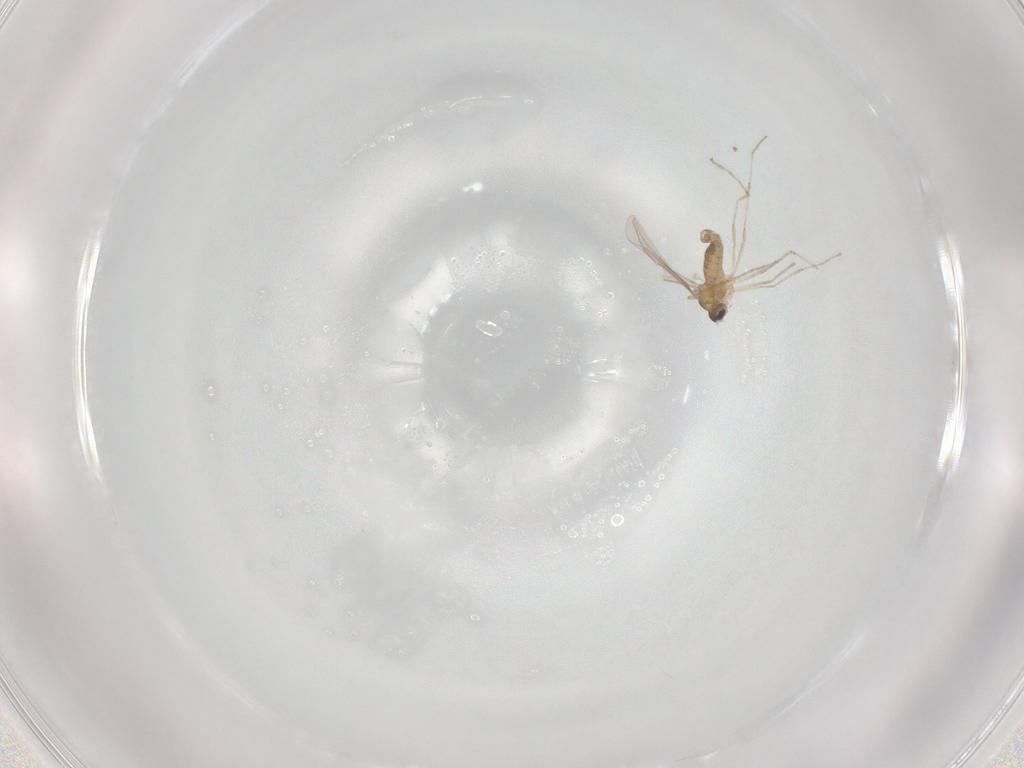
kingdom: Animalia
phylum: Arthropoda
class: Insecta
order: Diptera
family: Cecidomyiidae
